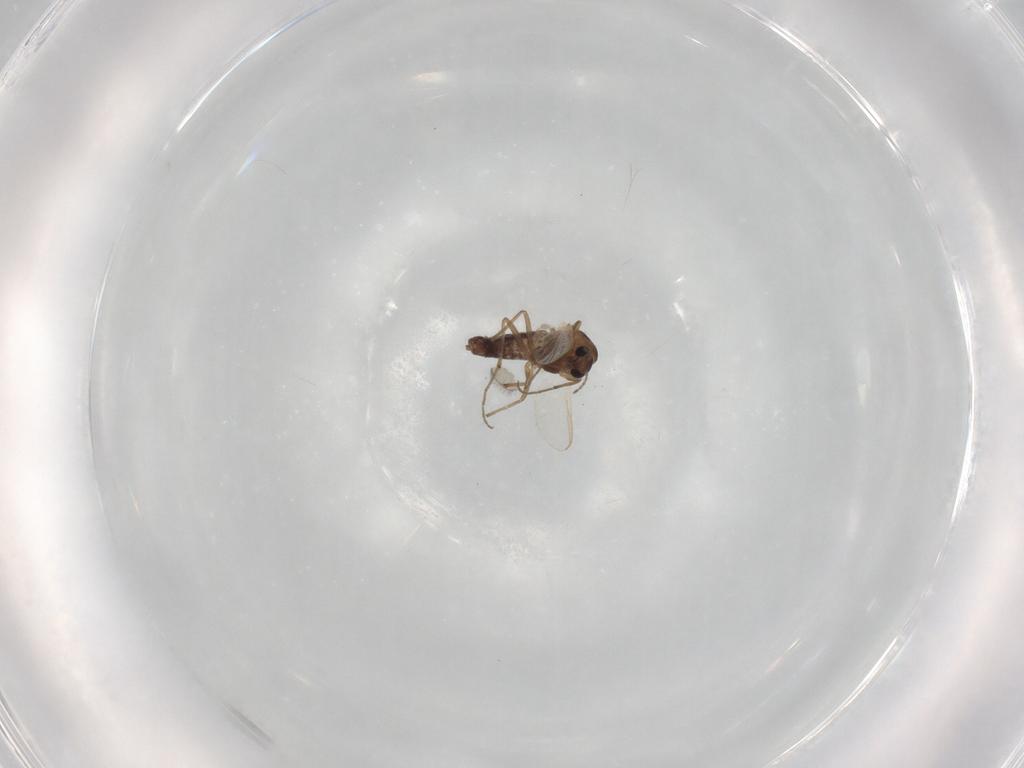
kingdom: Animalia
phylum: Arthropoda
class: Insecta
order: Diptera
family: Chironomidae
